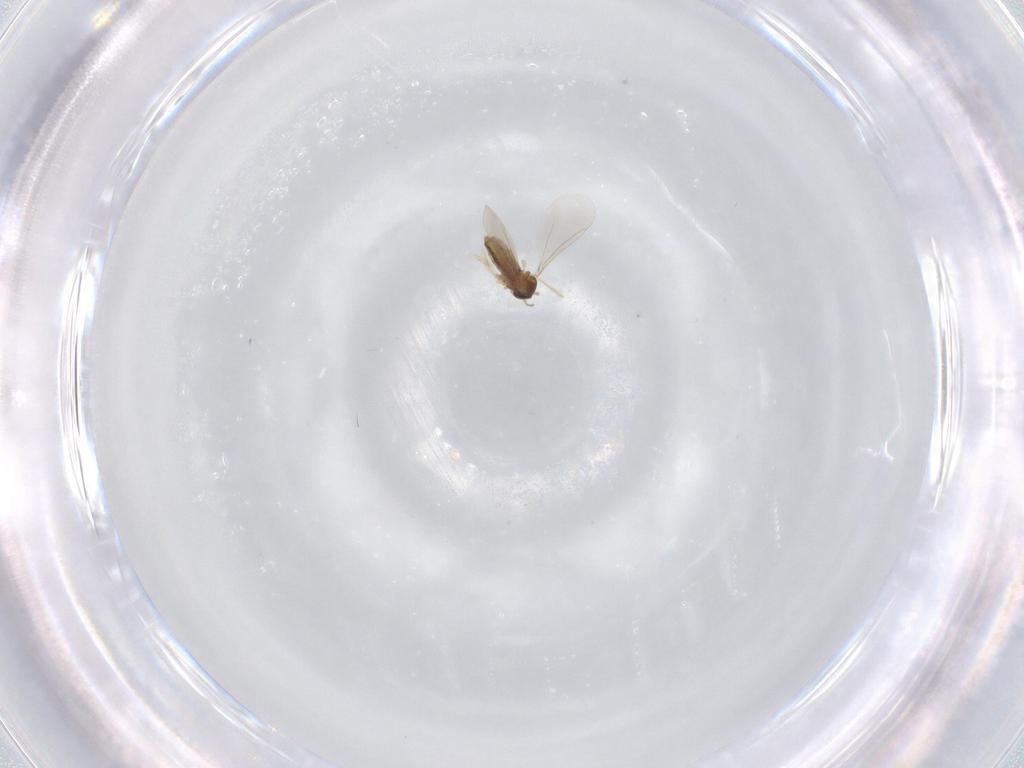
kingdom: Animalia
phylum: Arthropoda
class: Insecta
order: Diptera
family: Cecidomyiidae
